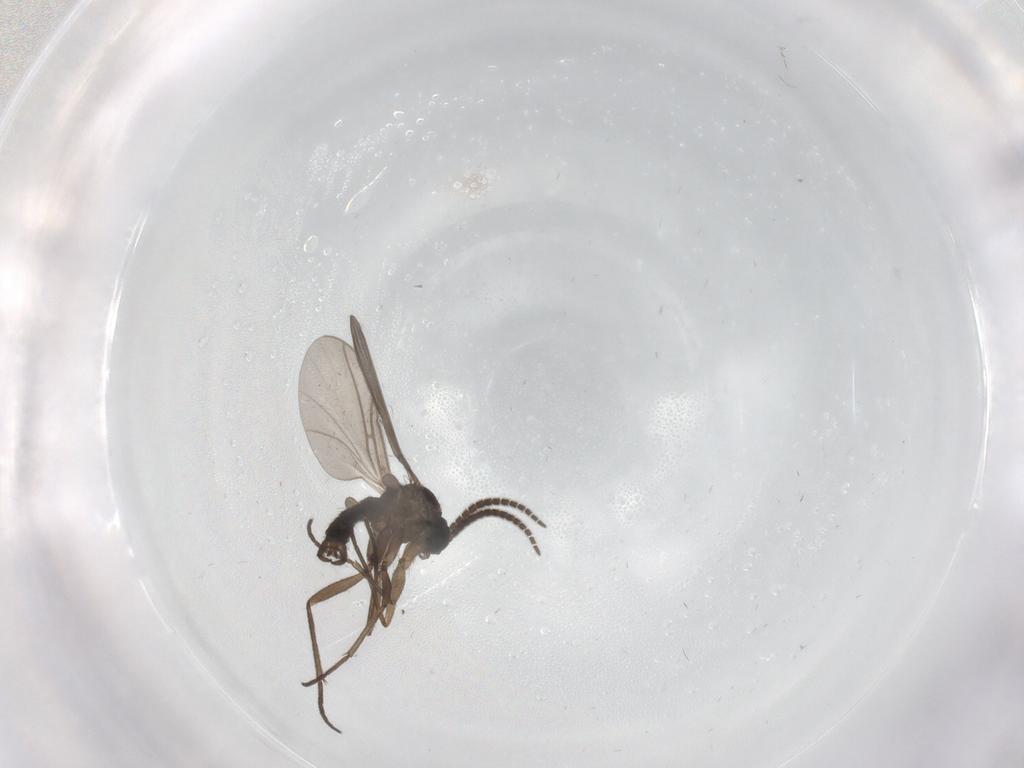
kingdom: Animalia
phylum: Arthropoda
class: Insecta
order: Diptera
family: Sciaridae
